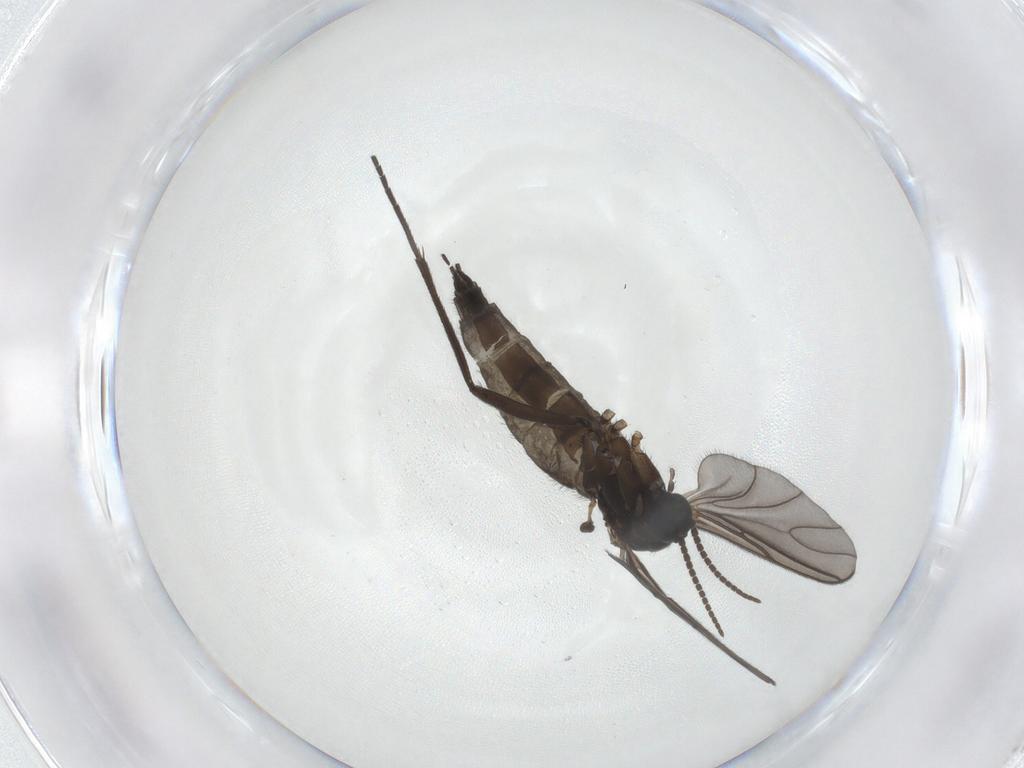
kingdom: Animalia
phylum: Arthropoda
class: Insecta
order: Diptera
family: Sciaridae
